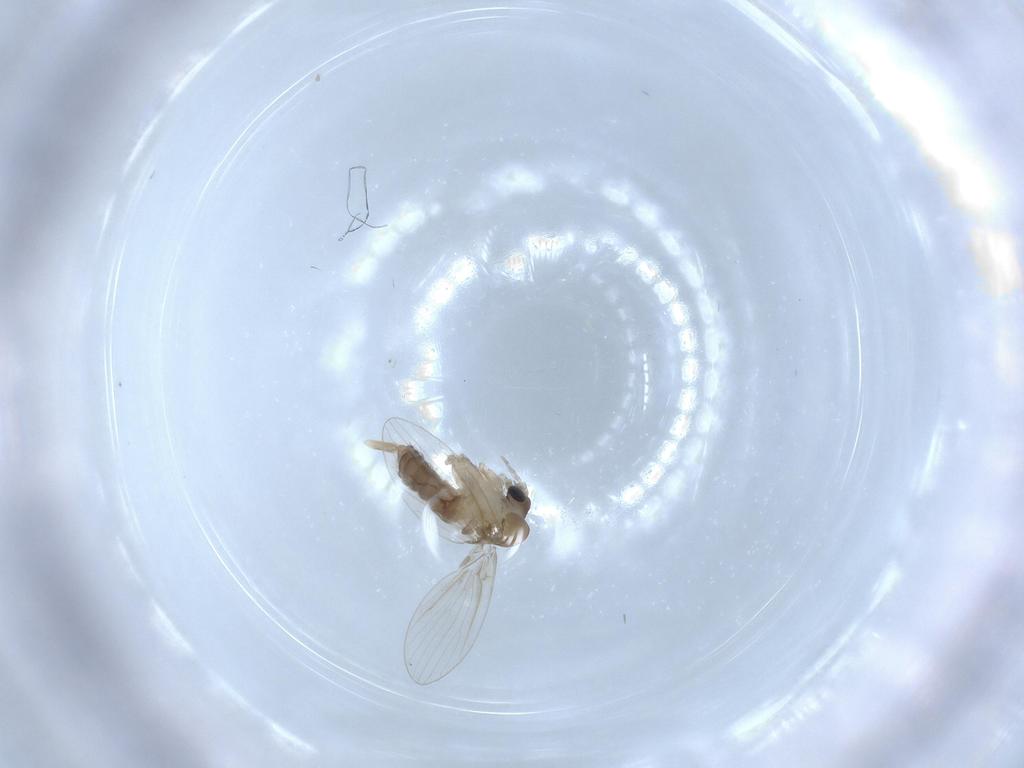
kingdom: Animalia
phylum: Arthropoda
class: Insecta
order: Diptera
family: Psychodidae
